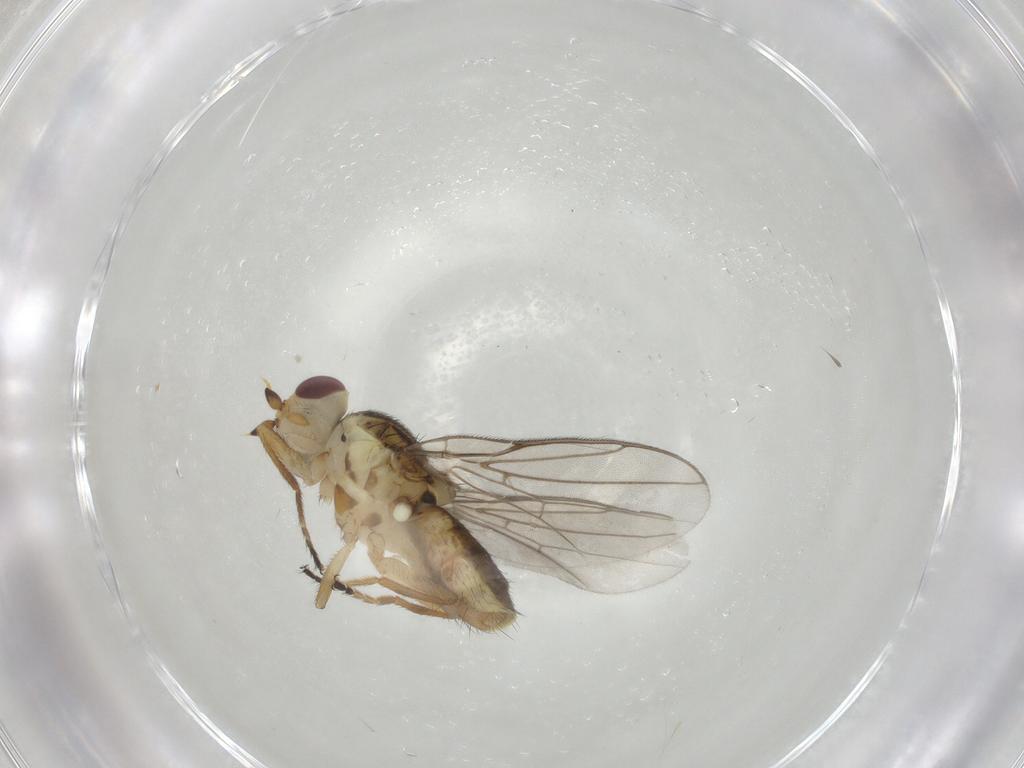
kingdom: Animalia
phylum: Arthropoda
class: Insecta
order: Diptera
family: Chloropidae
